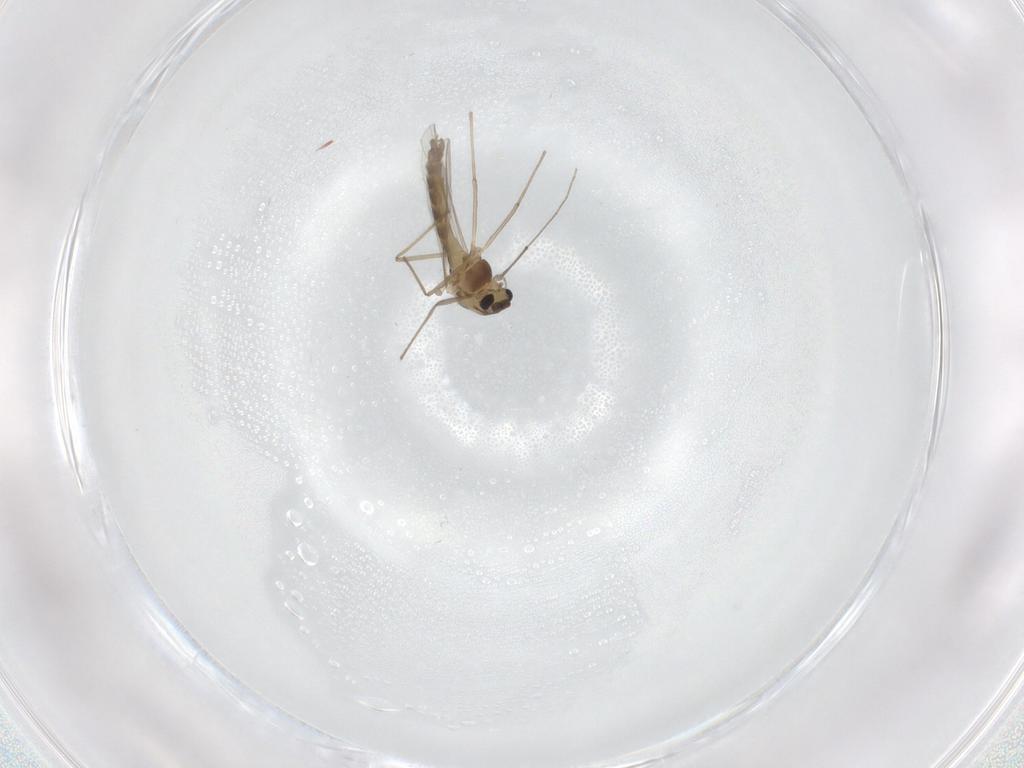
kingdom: Animalia
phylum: Arthropoda
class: Insecta
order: Diptera
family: Chironomidae
